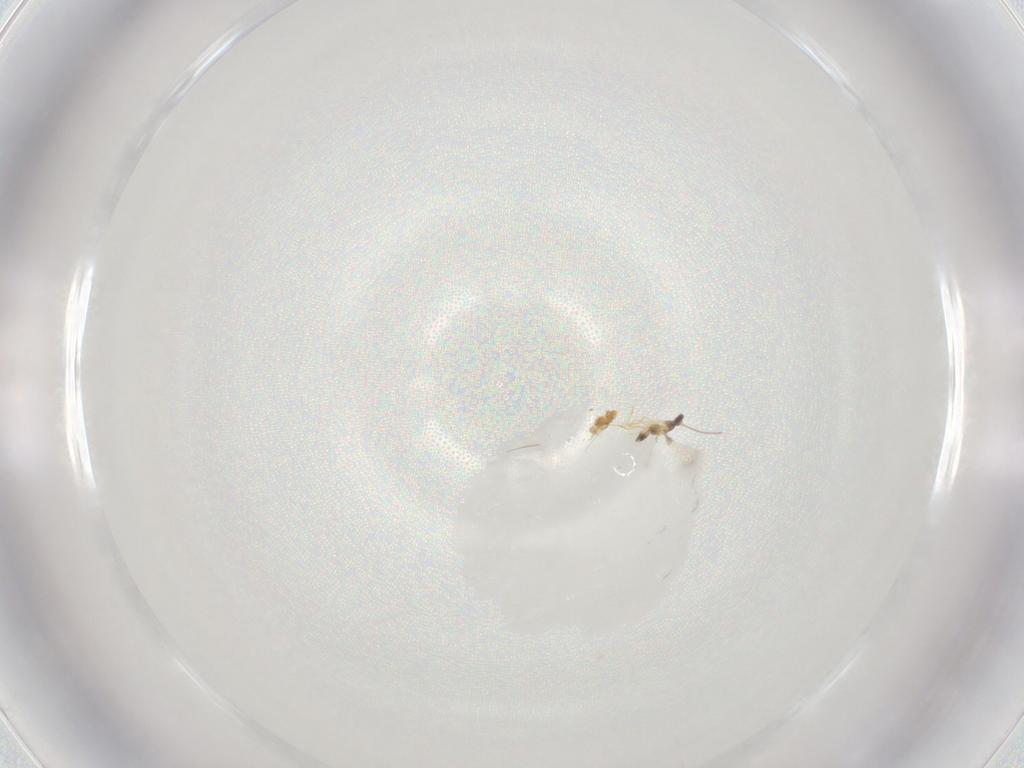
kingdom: Animalia
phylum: Arthropoda
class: Insecta
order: Hymenoptera
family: Mymaridae
